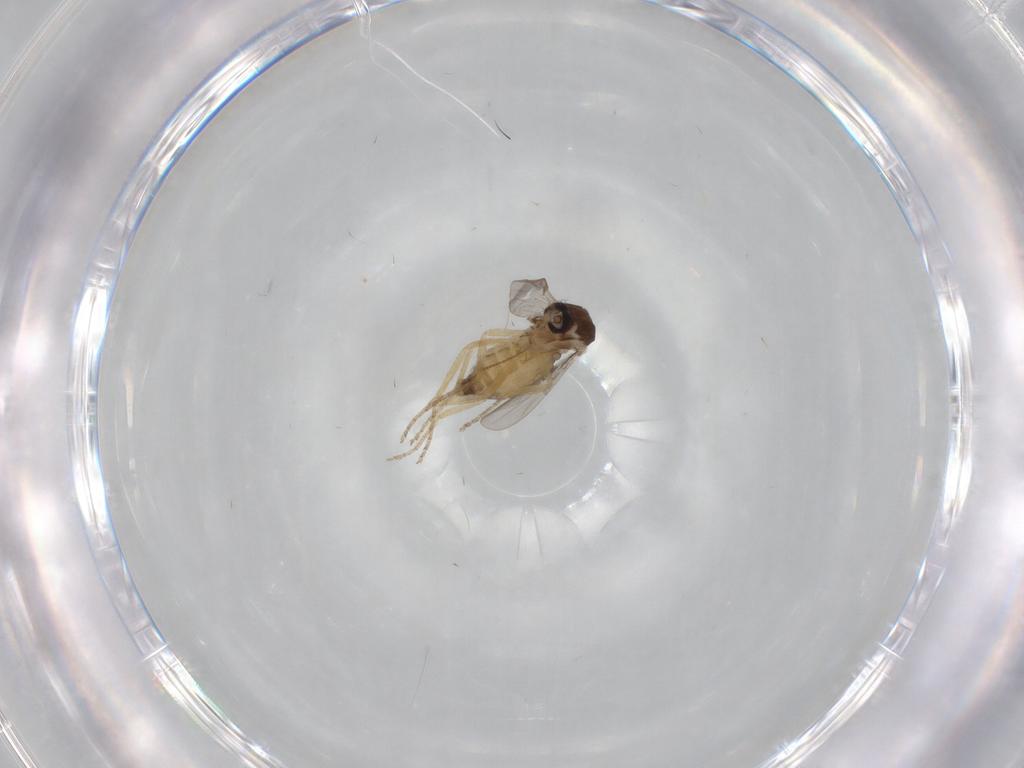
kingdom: Animalia
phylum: Arthropoda
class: Insecta
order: Diptera
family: Ceratopogonidae
